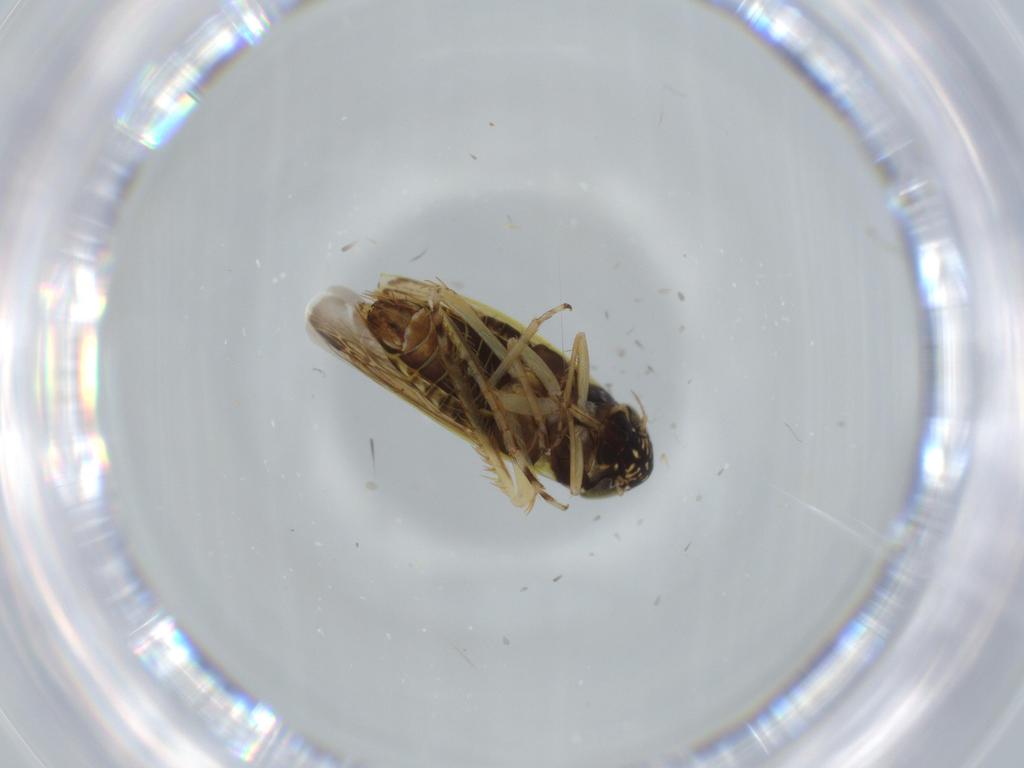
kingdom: Animalia
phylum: Arthropoda
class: Insecta
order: Hemiptera
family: Cicadellidae
